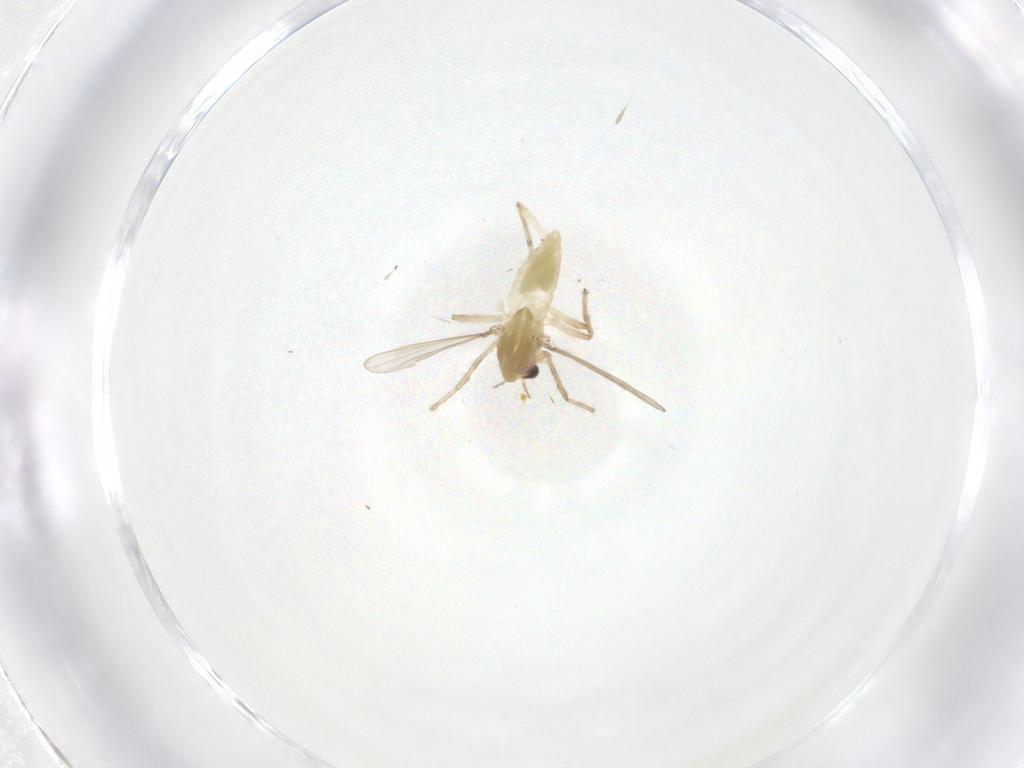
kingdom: Animalia
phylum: Arthropoda
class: Insecta
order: Diptera
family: Chironomidae
